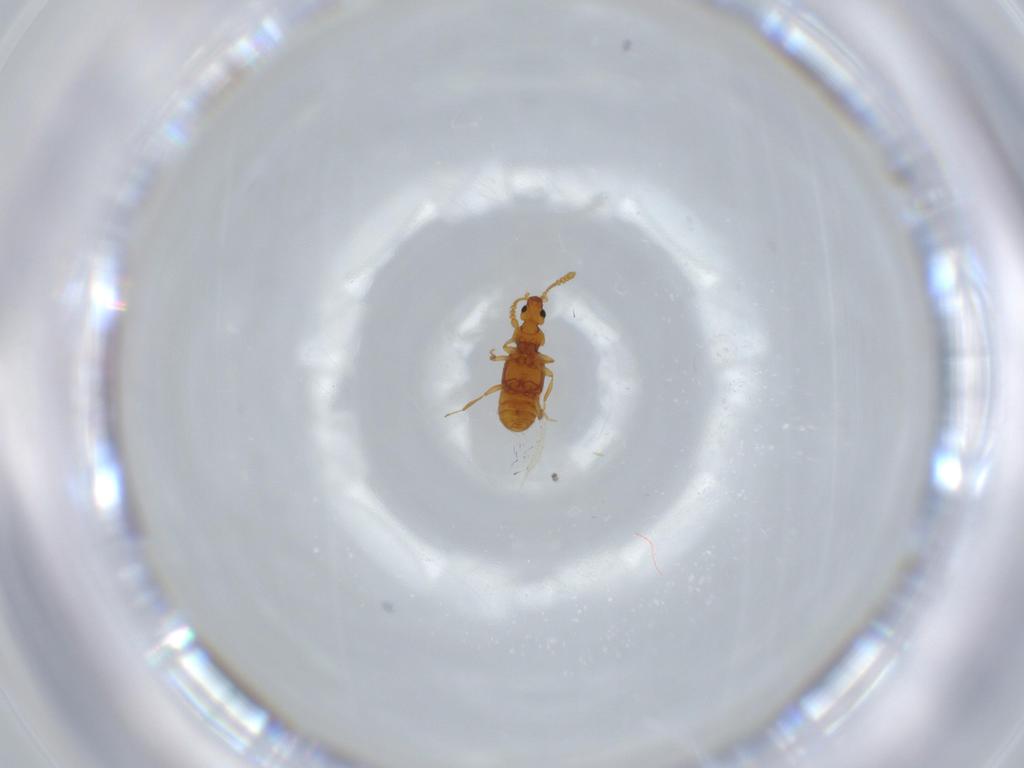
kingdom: Animalia
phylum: Arthropoda
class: Insecta
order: Coleoptera
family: Staphylinidae
